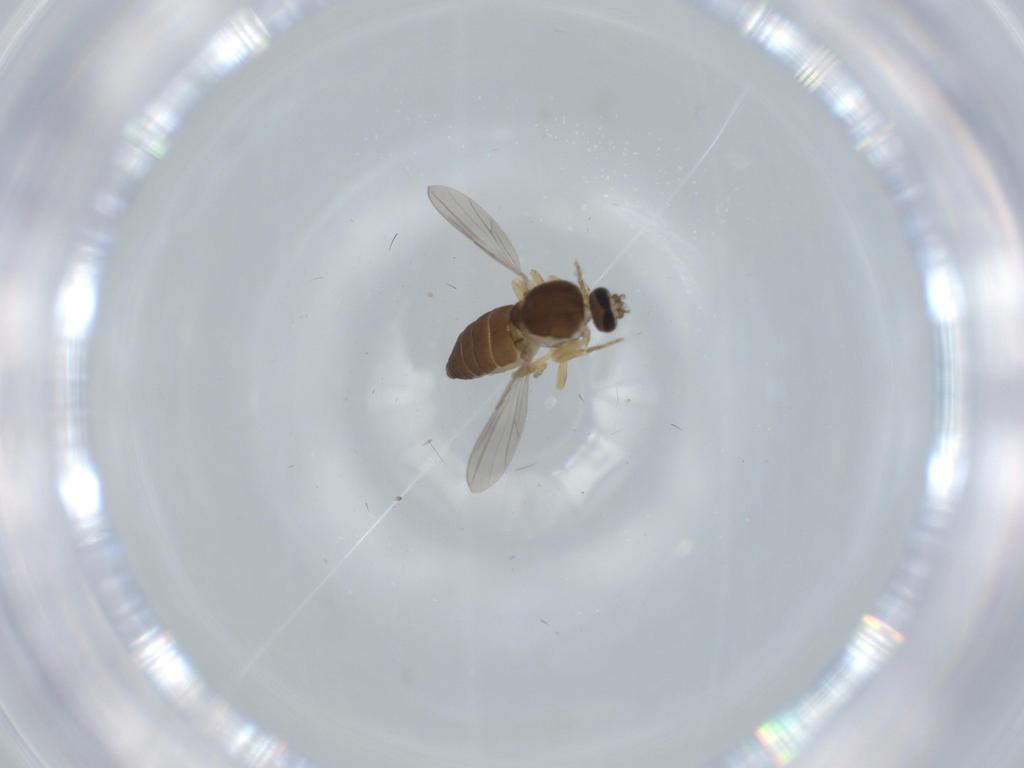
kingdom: Animalia
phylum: Arthropoda
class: Insecta
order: Diptera
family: Ceratopogonidae
